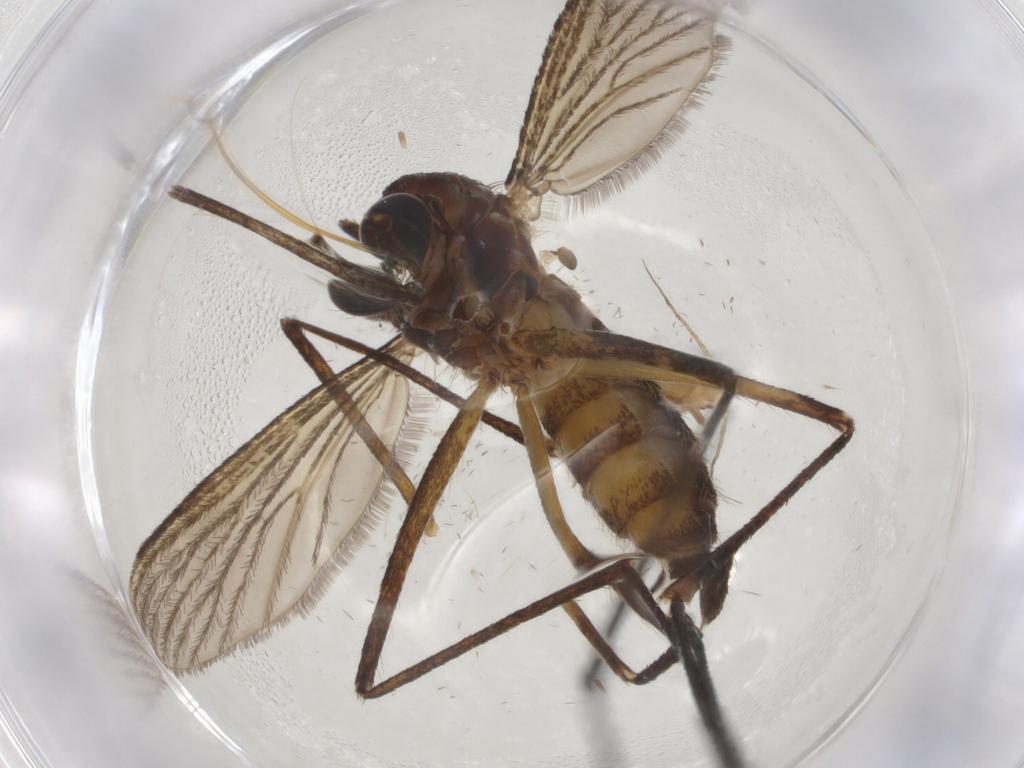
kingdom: Animalia
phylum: Arthropoda
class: Insecta
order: Diptera
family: Culicidae
